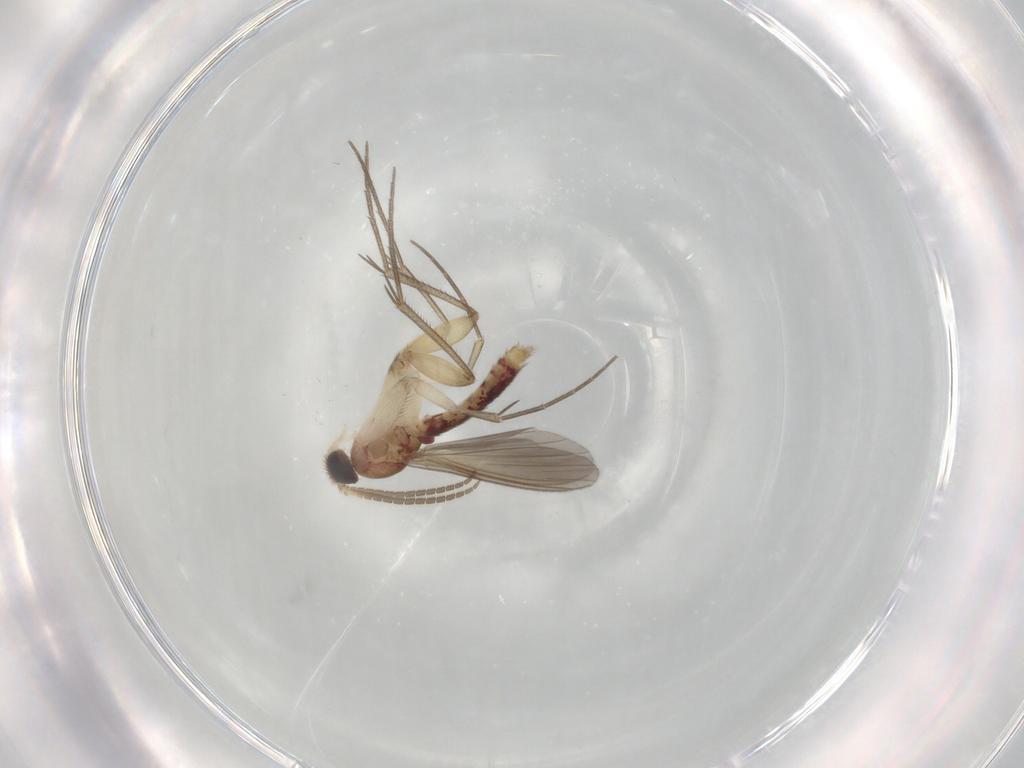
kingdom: Animalia
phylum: Arthropoda
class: Insecta
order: Diptera
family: Mycetophilidae
